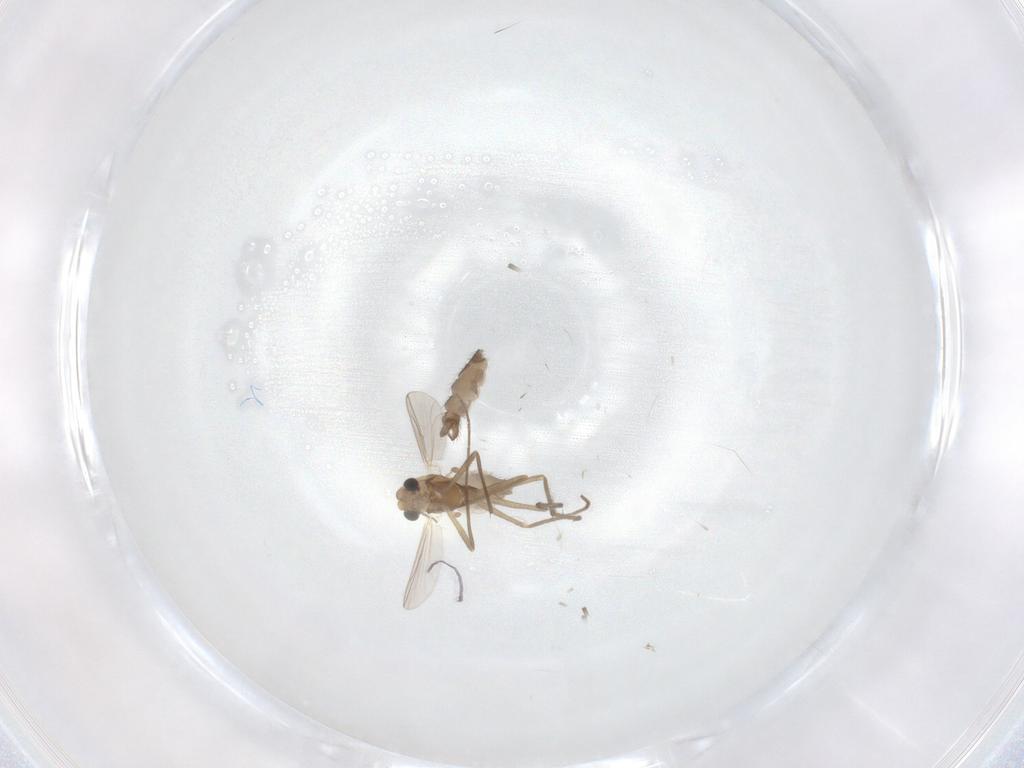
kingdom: Animalia
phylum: Arthropoda
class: Insecta
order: Diptera
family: Chironomidae
